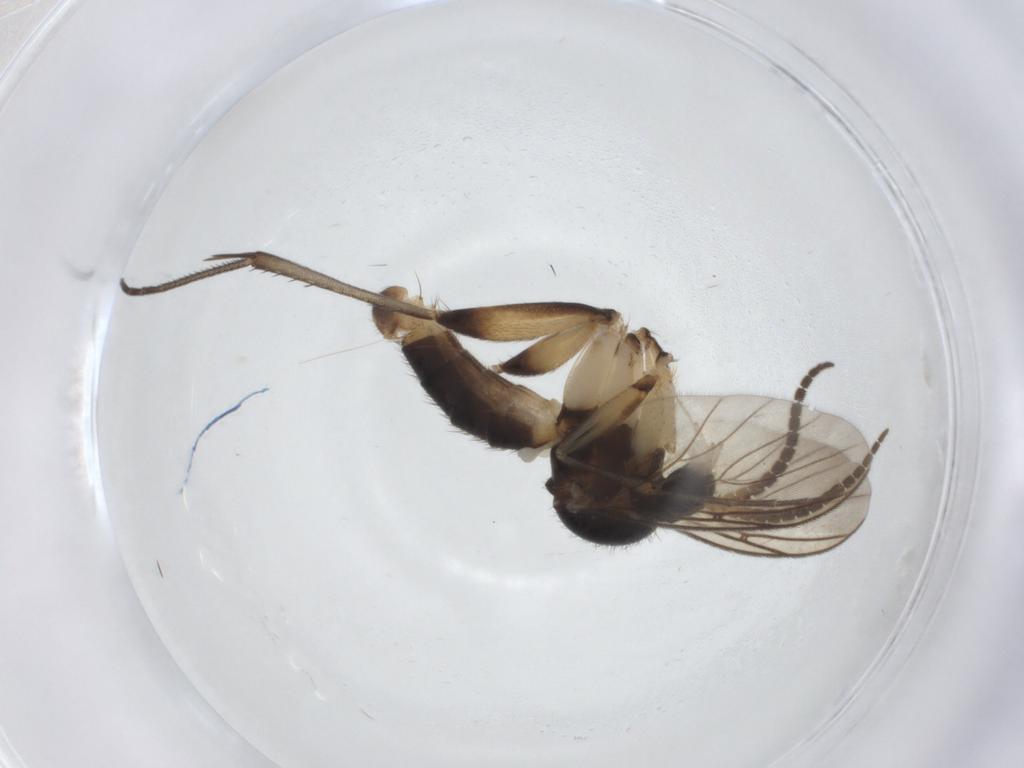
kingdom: Animalia
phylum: Arthropoda
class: Insecta
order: Diptera
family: Mycetophilidae
